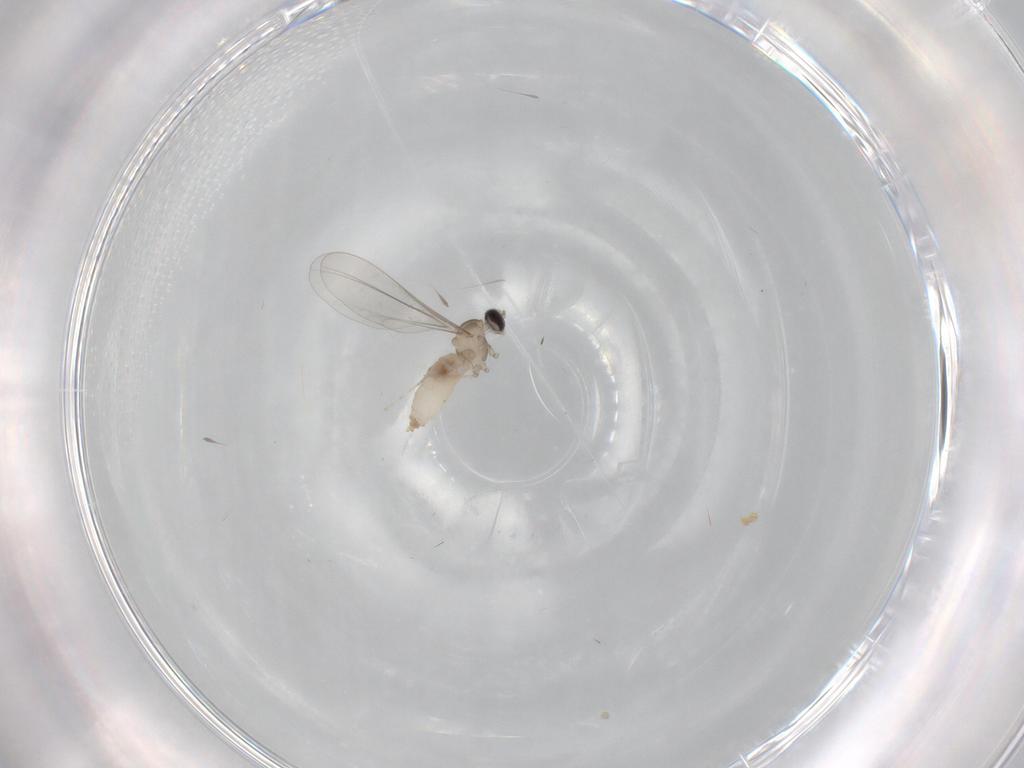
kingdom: Animalia
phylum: Arthropoda
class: Insecta
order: Diptera
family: Cecidomyiidae
